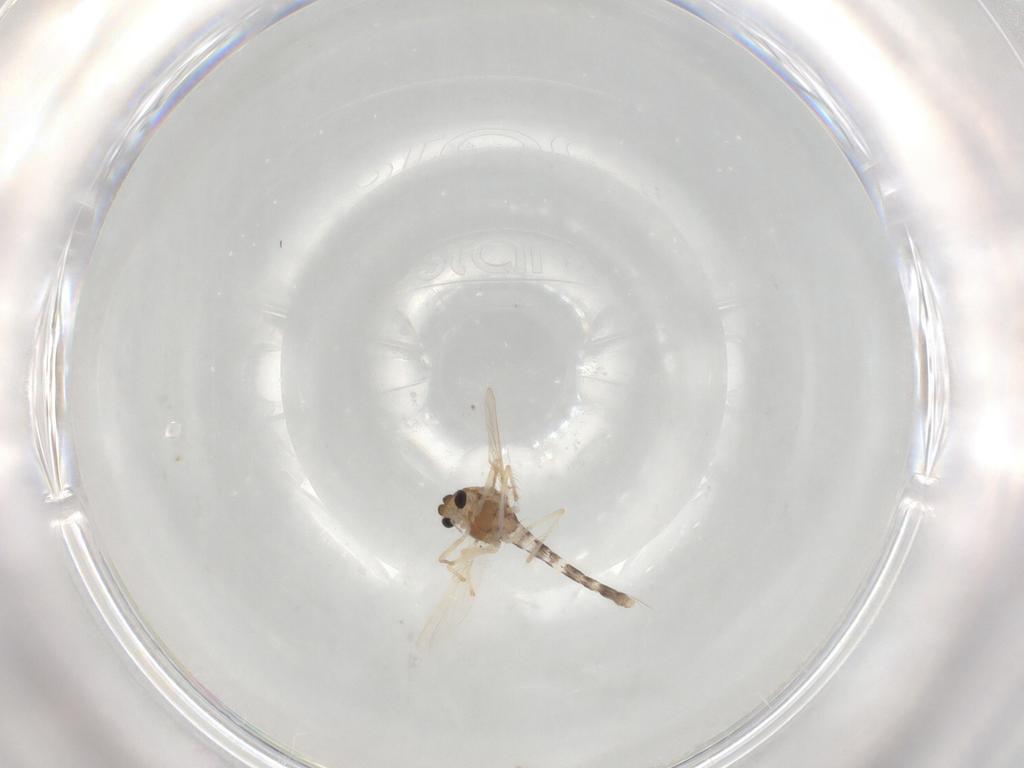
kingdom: Animalia
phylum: Arthropoda
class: Insecta
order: Diptera
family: Chironomidae
